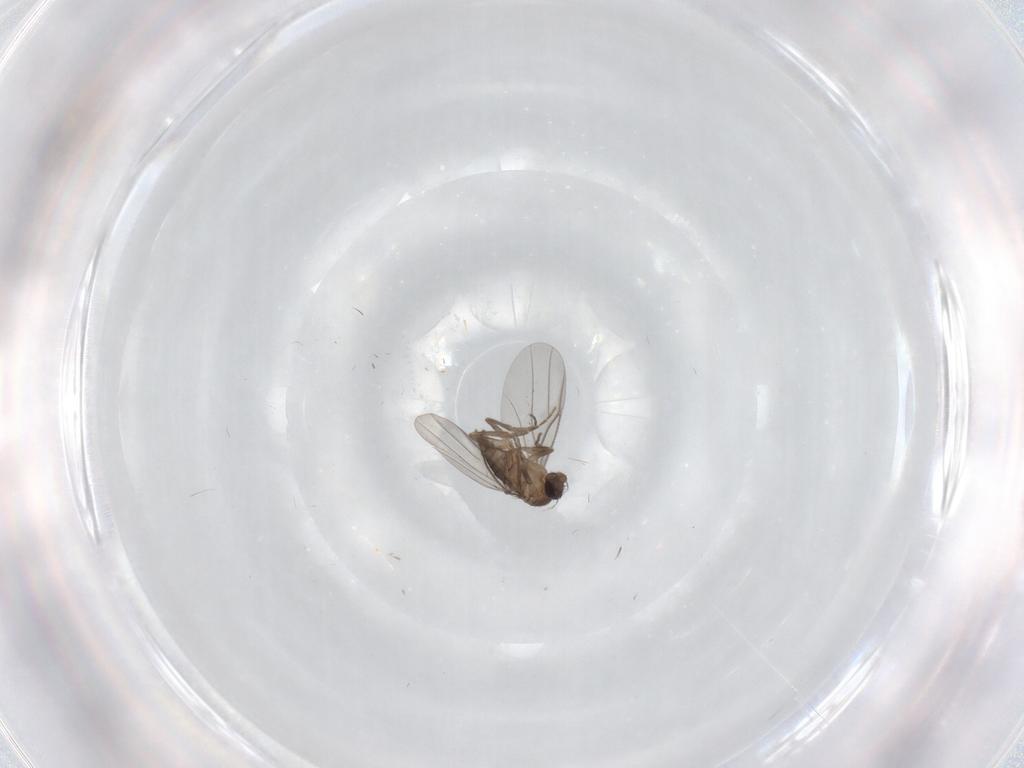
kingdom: Animalia
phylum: Arthropoda
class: Insecta
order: Diptera
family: Phoridae
